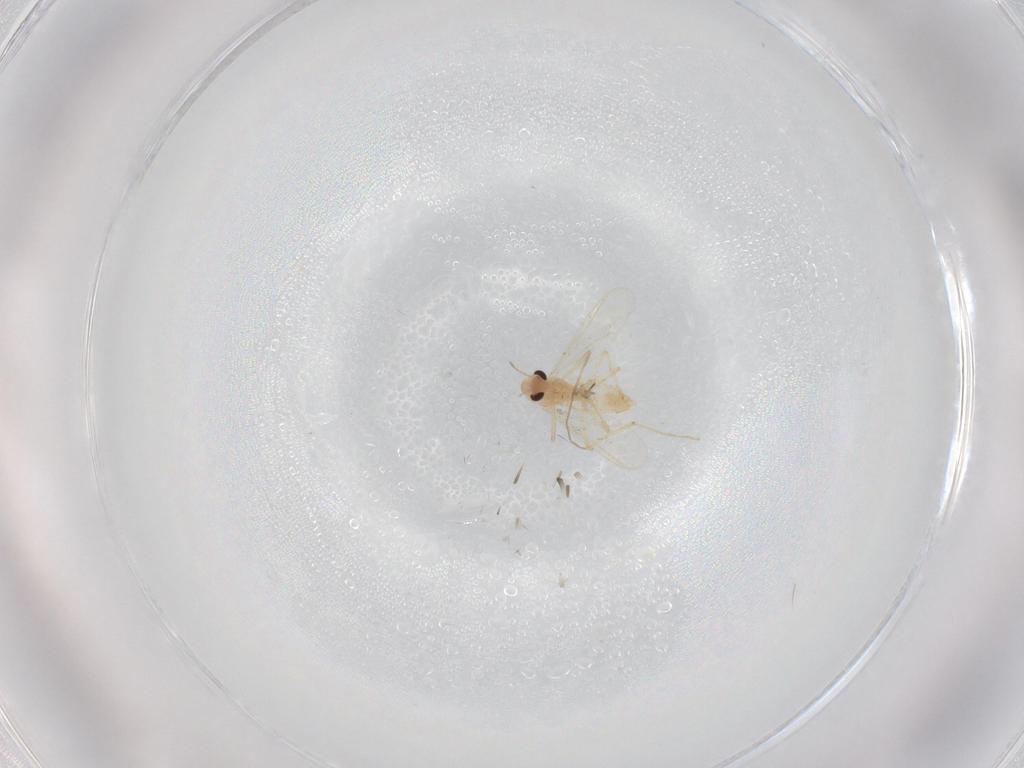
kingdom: Animalia
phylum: Arthropoda
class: Insecta
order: Diptera
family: Chironomidae
